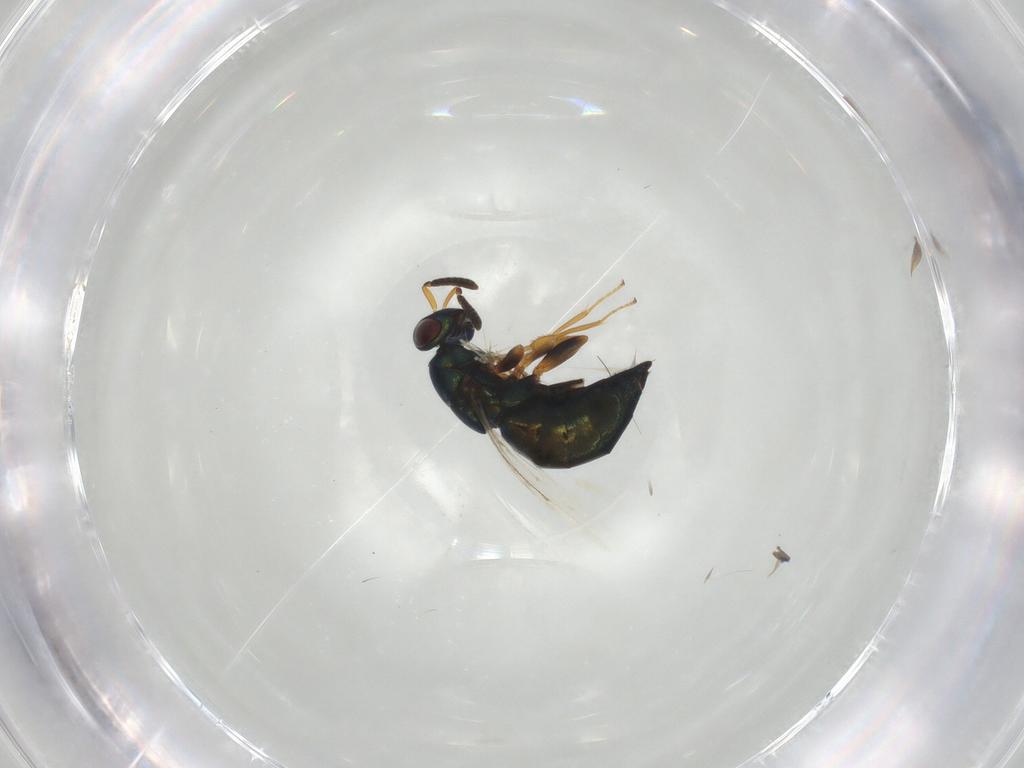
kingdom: Animalia
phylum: Arthropoda
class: Insecta
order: Hymenoptera
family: Pteromalidae
